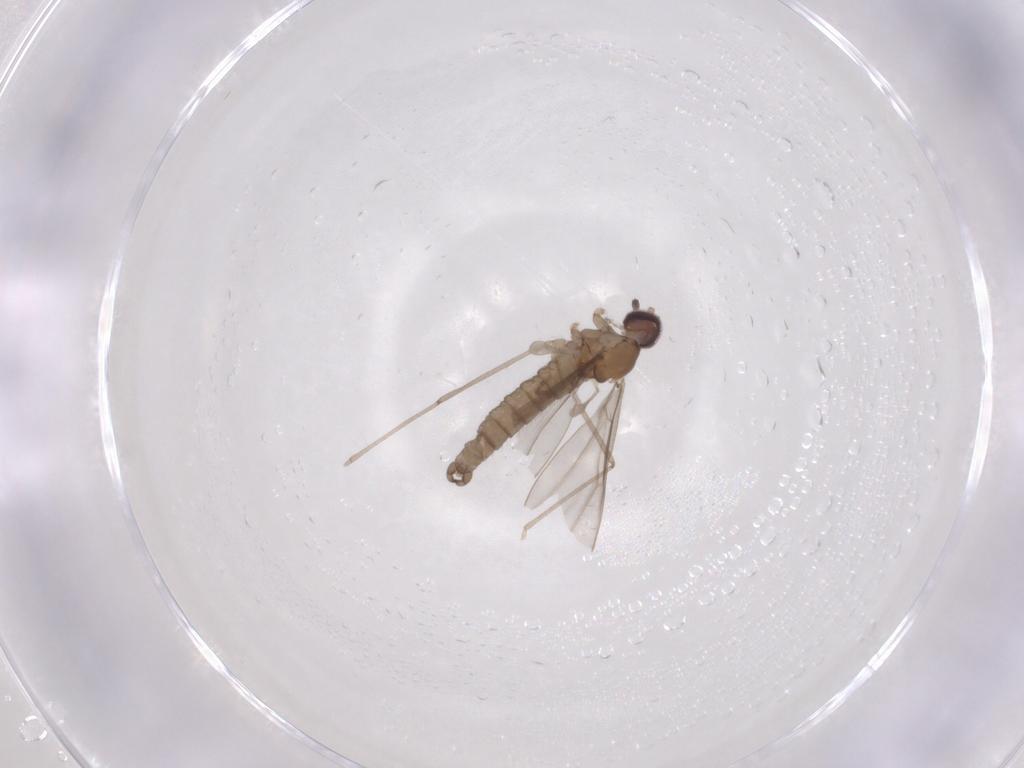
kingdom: Animalia
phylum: Arthropoda
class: Insecta
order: Diptera
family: Cecidomyiidae
